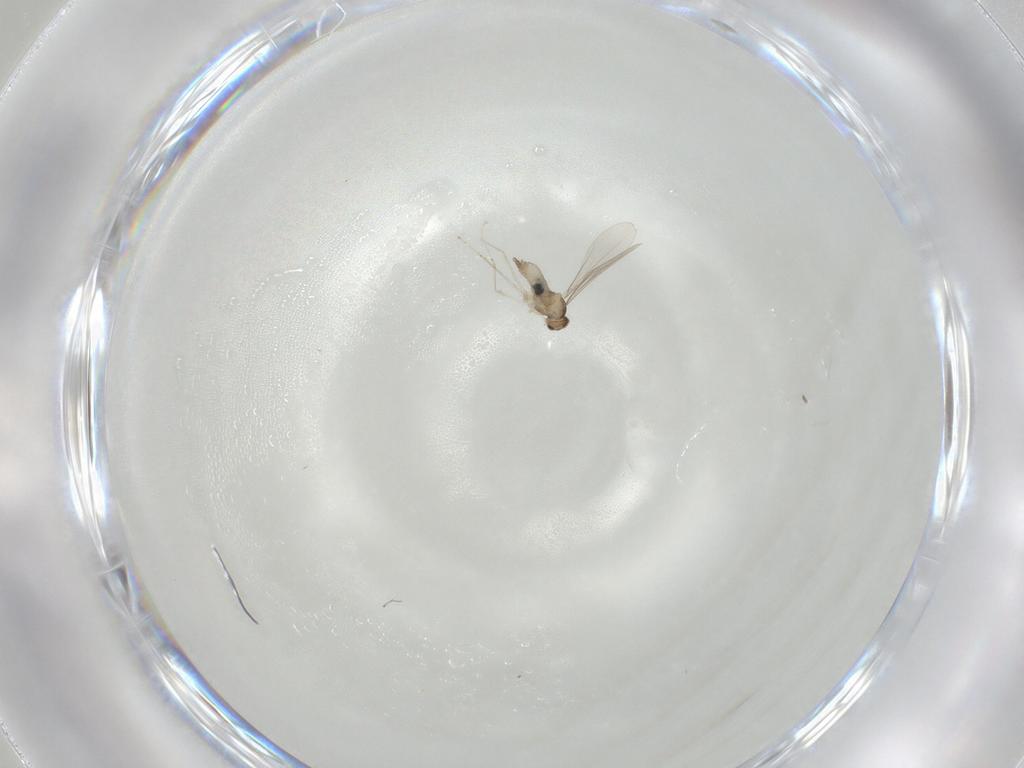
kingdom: Animalia
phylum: Arthropoda
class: Insecta
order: Diptera
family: Cecidomyiidae
